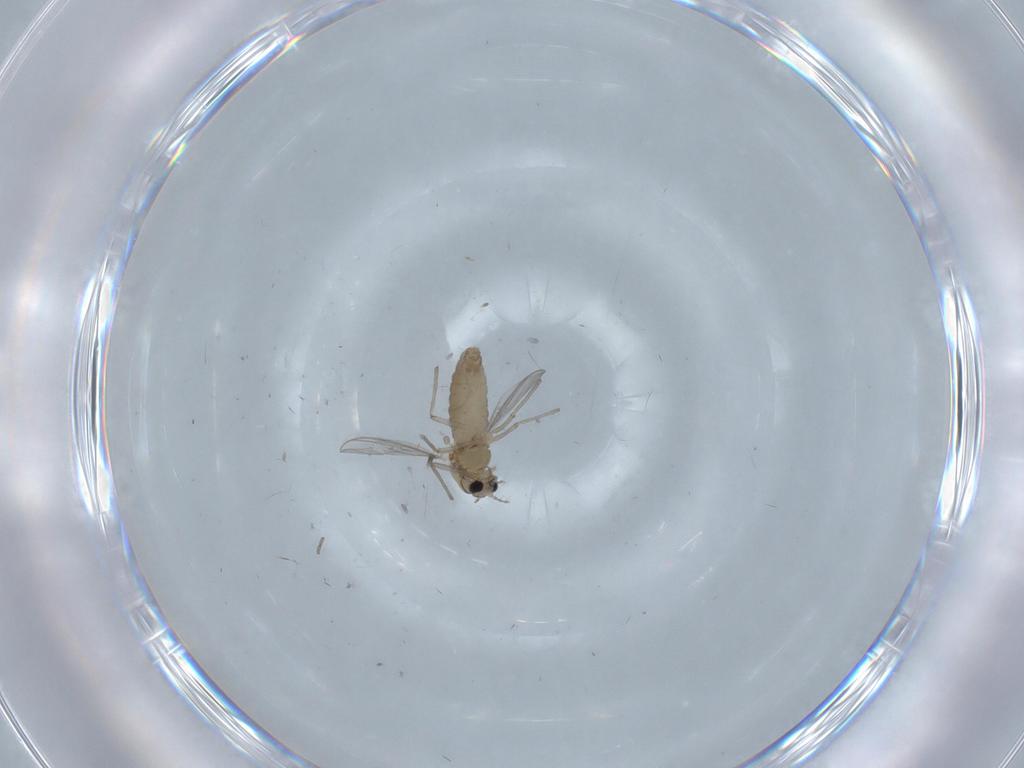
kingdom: Animalia
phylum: Arthropoda
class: Insecta
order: Diptera
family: Chironomidae
